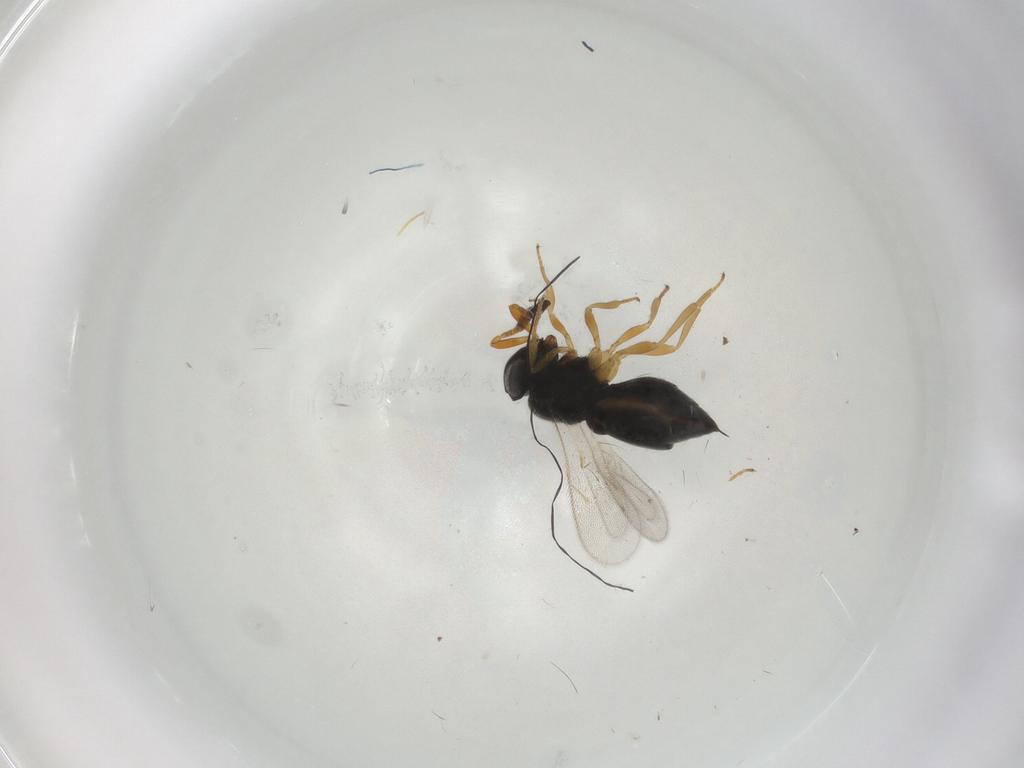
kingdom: Animalia
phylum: Arthropoda
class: Insecta
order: Hymenoptera
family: Scelionidae
